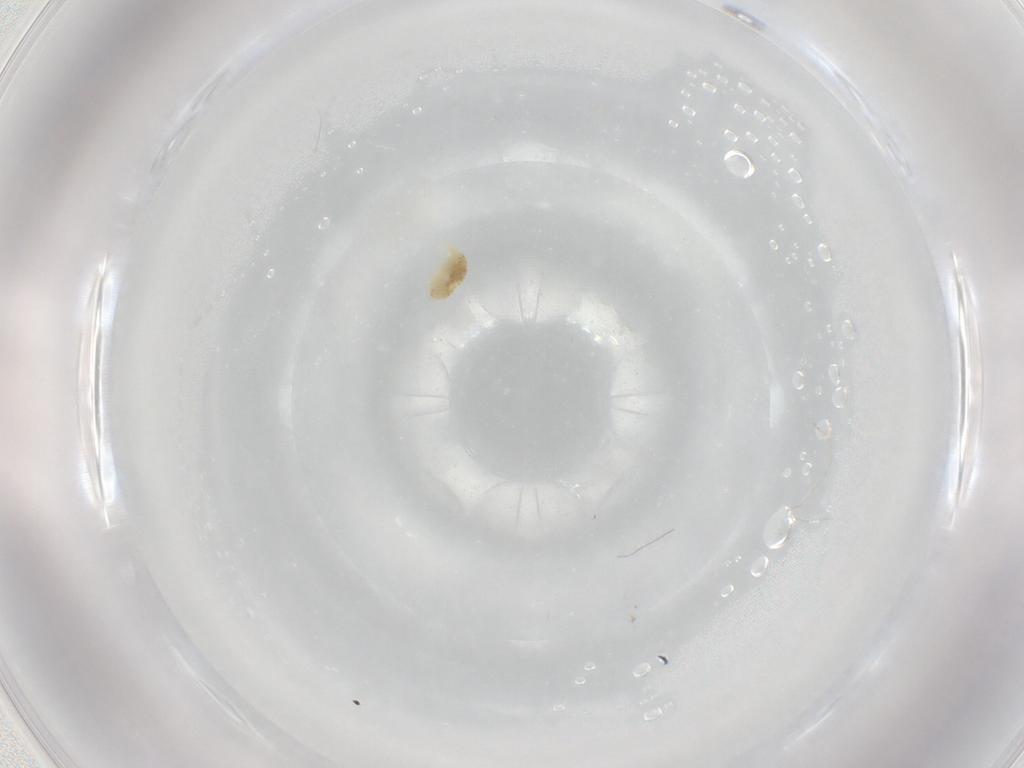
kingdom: Animalia
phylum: Arthropoda
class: Arachnida
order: Trombidiformes
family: Eupodidae
